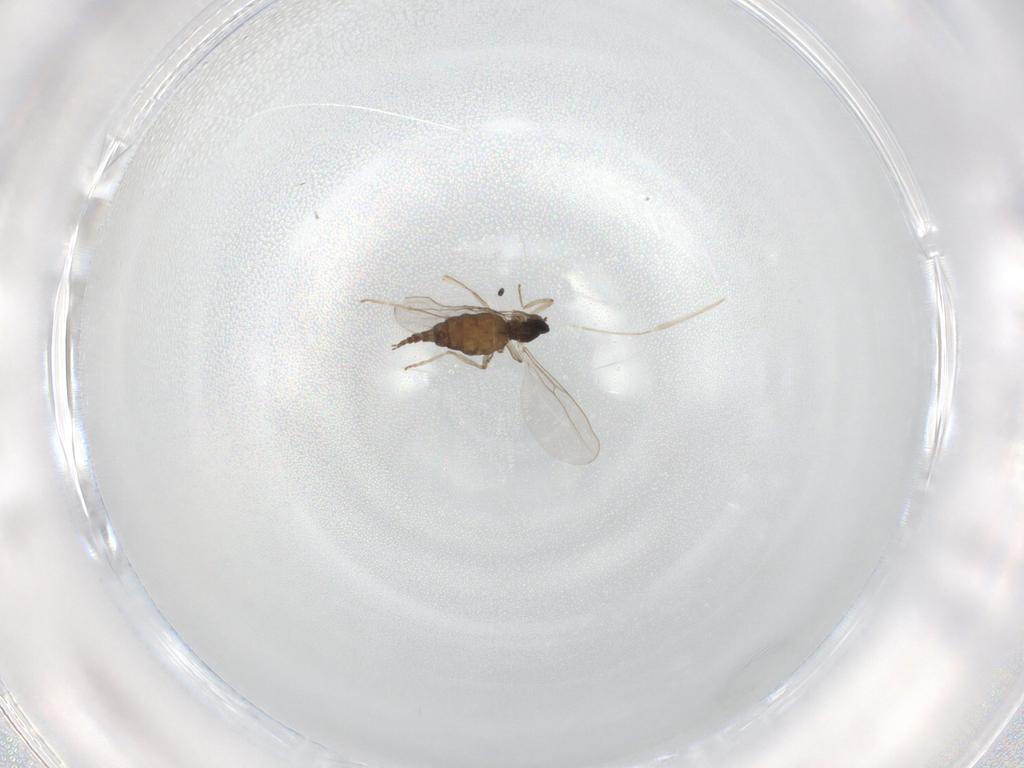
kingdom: Animalia
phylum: Arthropoda
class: Insecta
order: Diptera
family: Cecidomyiidae
